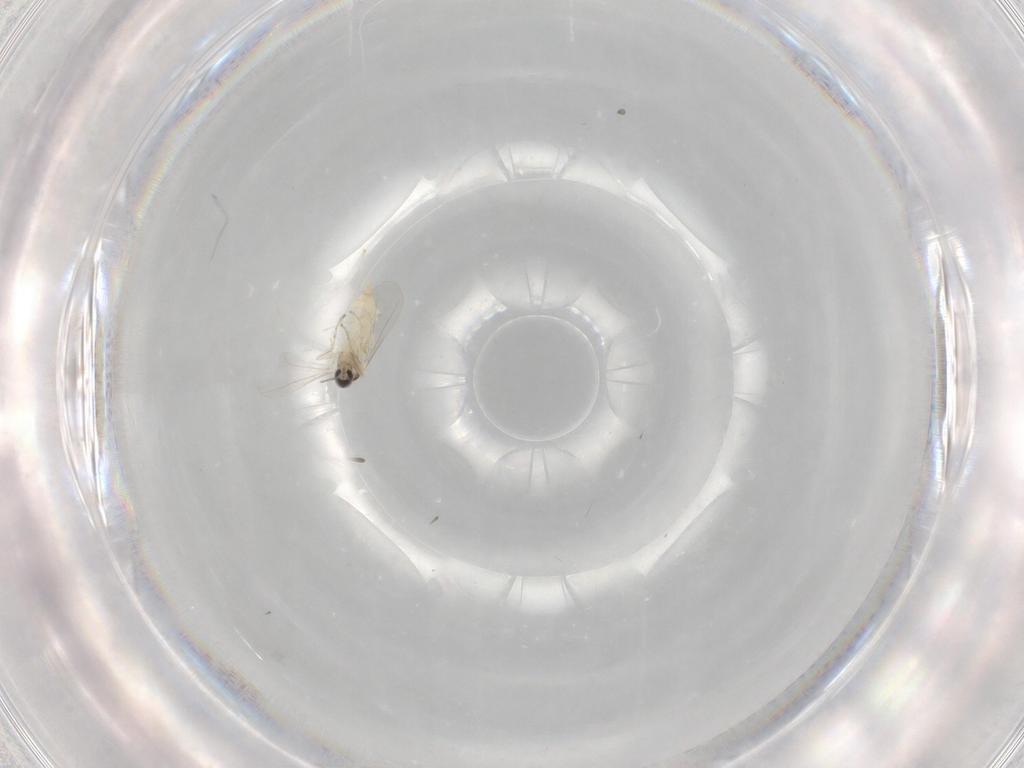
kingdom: Animalia
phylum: Arthropoda
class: Insecta
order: Diptera
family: Cecidomyiidae
